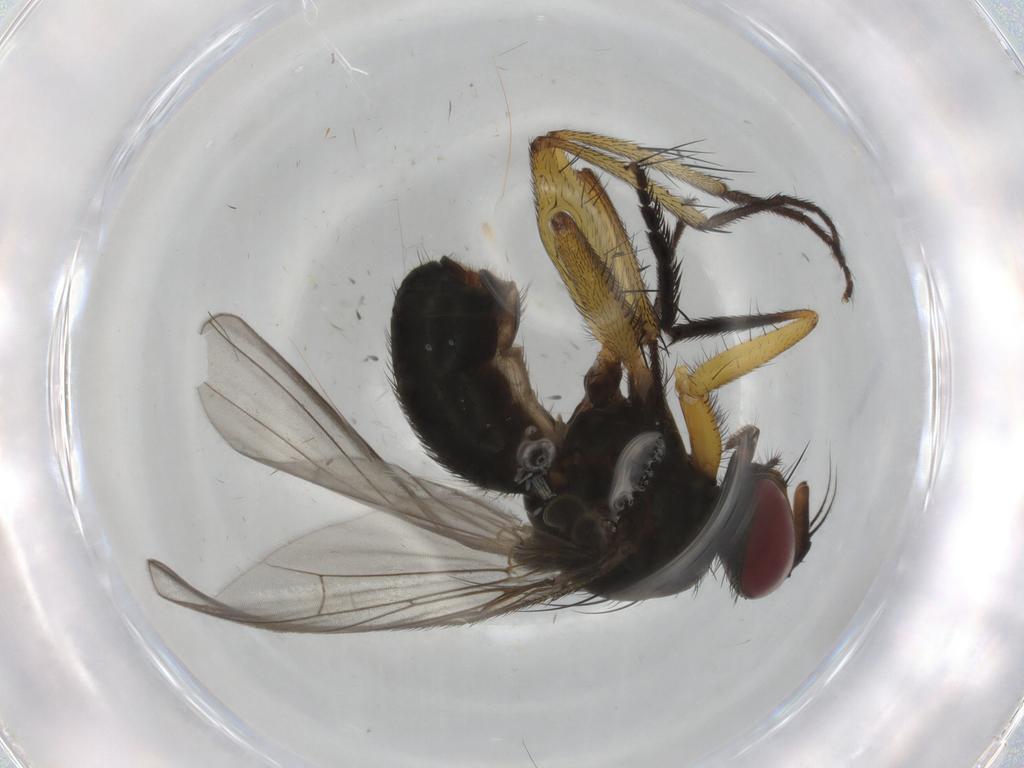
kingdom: Animalia
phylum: Arthropoda
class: Insecta
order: Diptera
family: Muscidae
